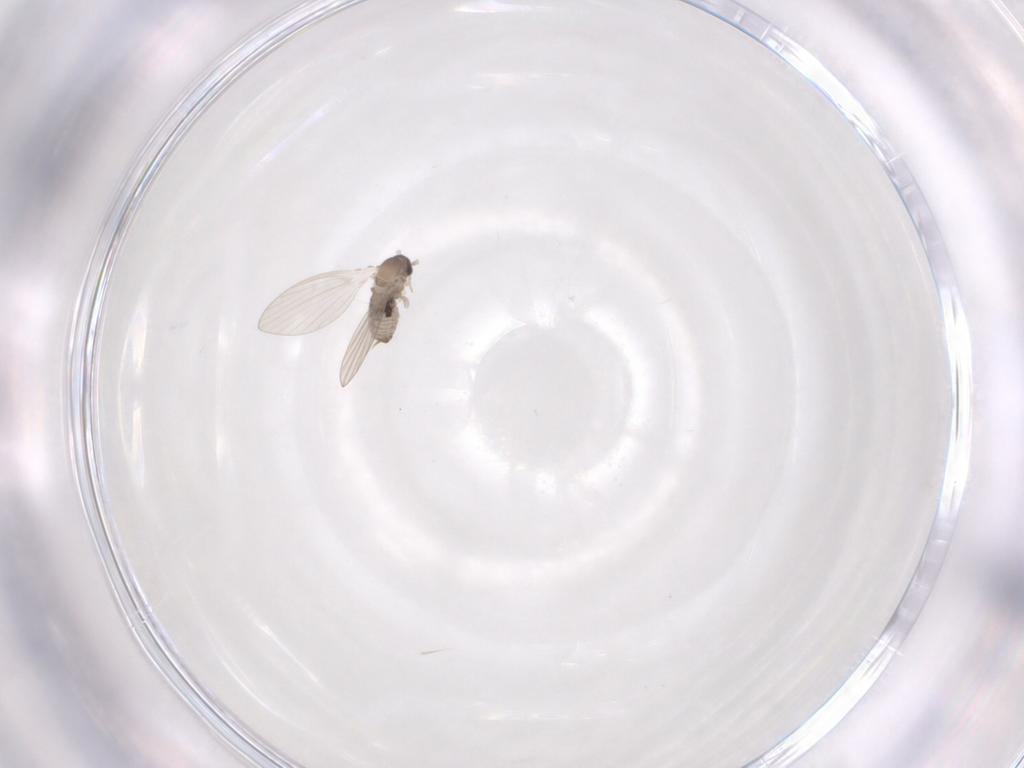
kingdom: Animalia
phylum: Arthropoda
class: Insecta
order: Diptera
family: Psychodidae
